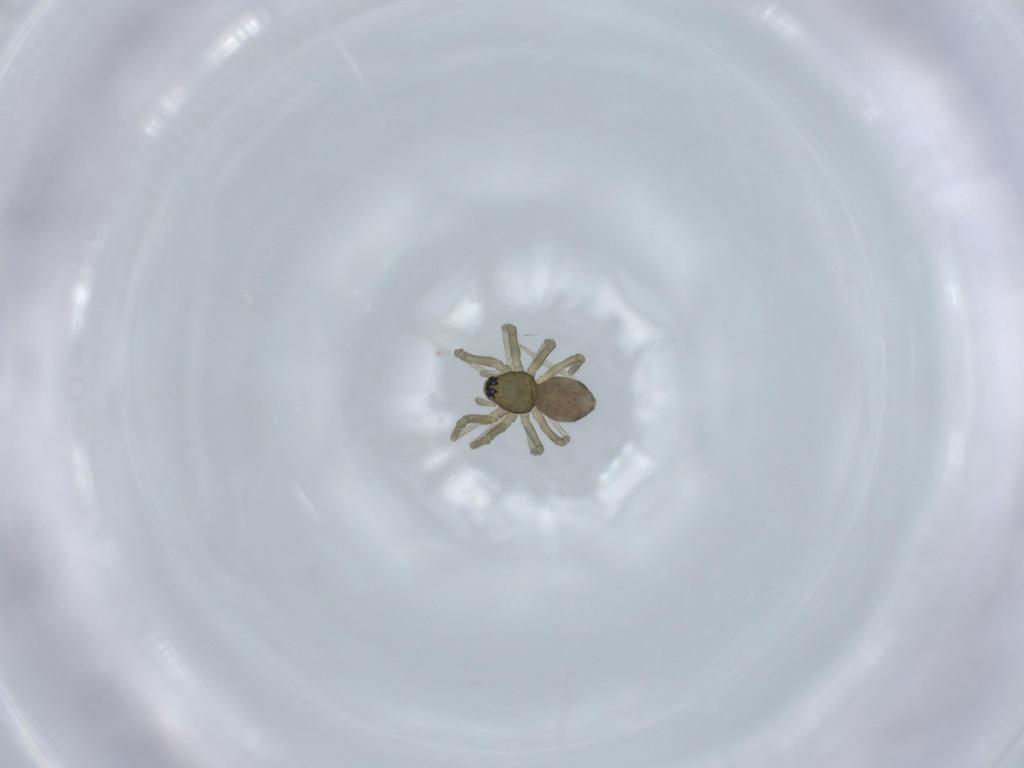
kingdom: Animalia
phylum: Arthropoda
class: Arachnida
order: Araneae
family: Linyphiidae
